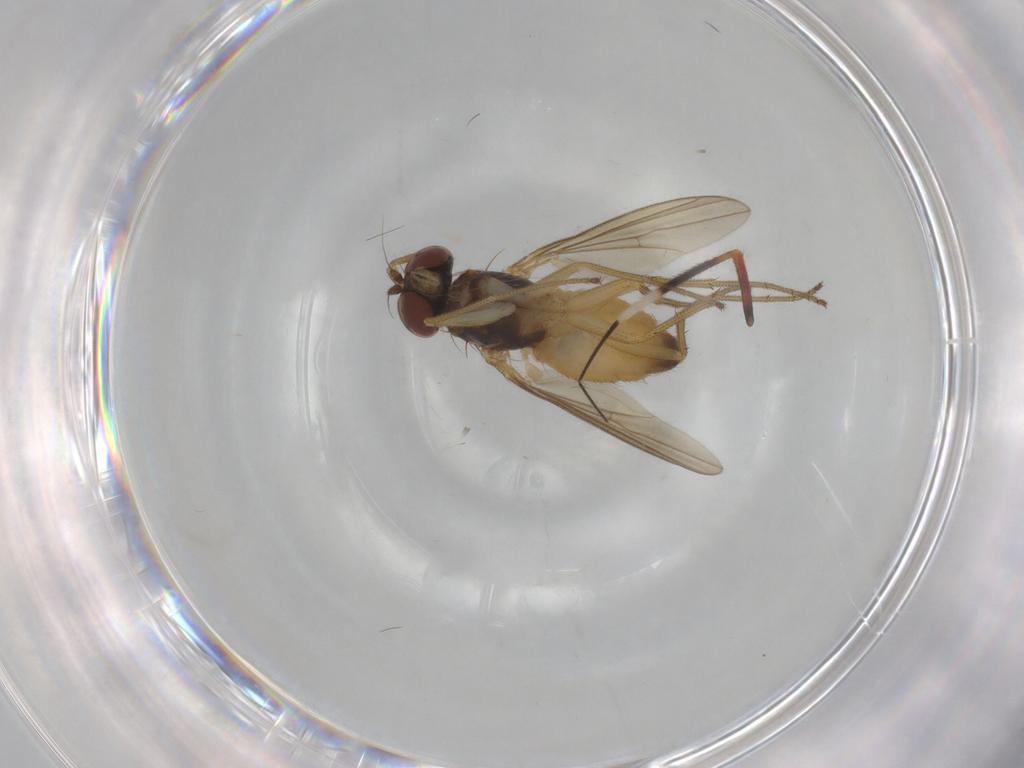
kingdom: Animalia
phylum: Arthropoda
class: Insecta
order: Diptera
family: Dolichopodidae
